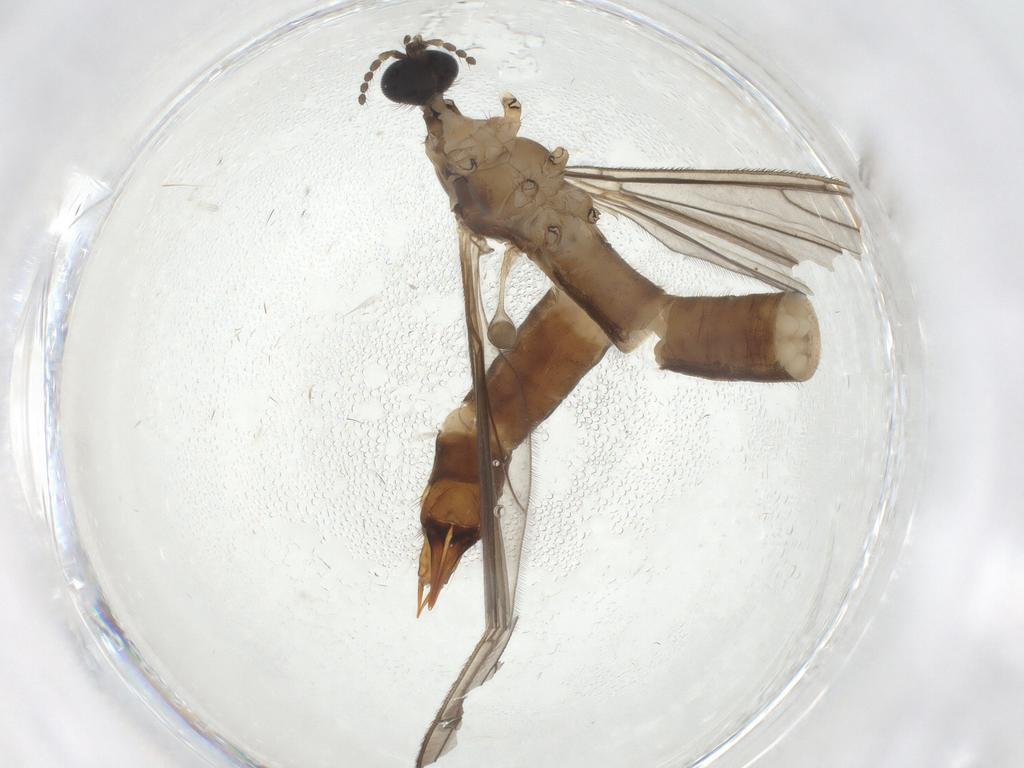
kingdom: Animalia
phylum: Arthropoda
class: Insecta
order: Diptera
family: Limoniidae
